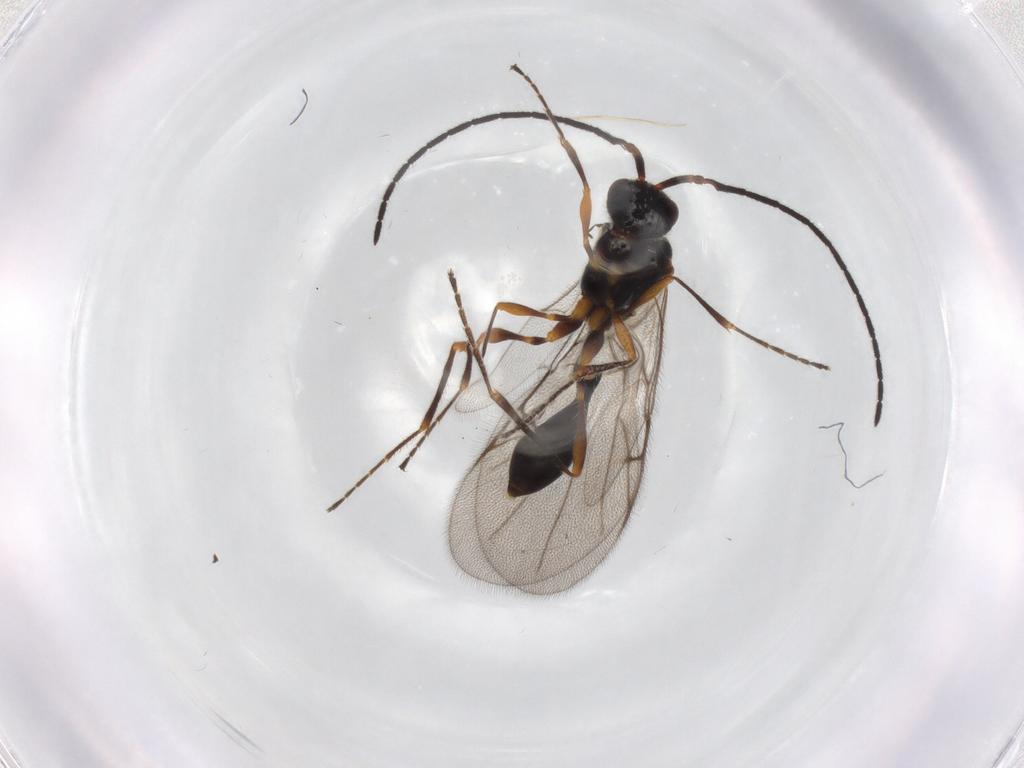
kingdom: Animalia
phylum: Arthropoda
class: Insecta
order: Hymenoptera
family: Diapriidae
